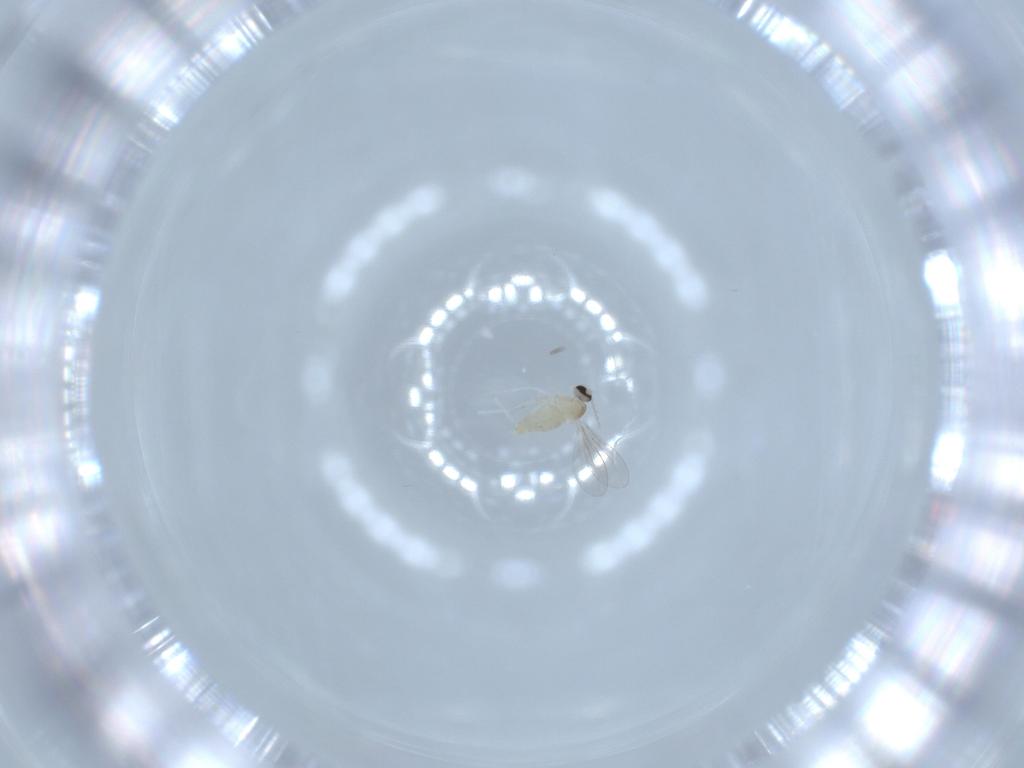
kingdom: Animalia
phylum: Arthropoda
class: Insecta
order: Diptera
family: Cecidomyiidae
